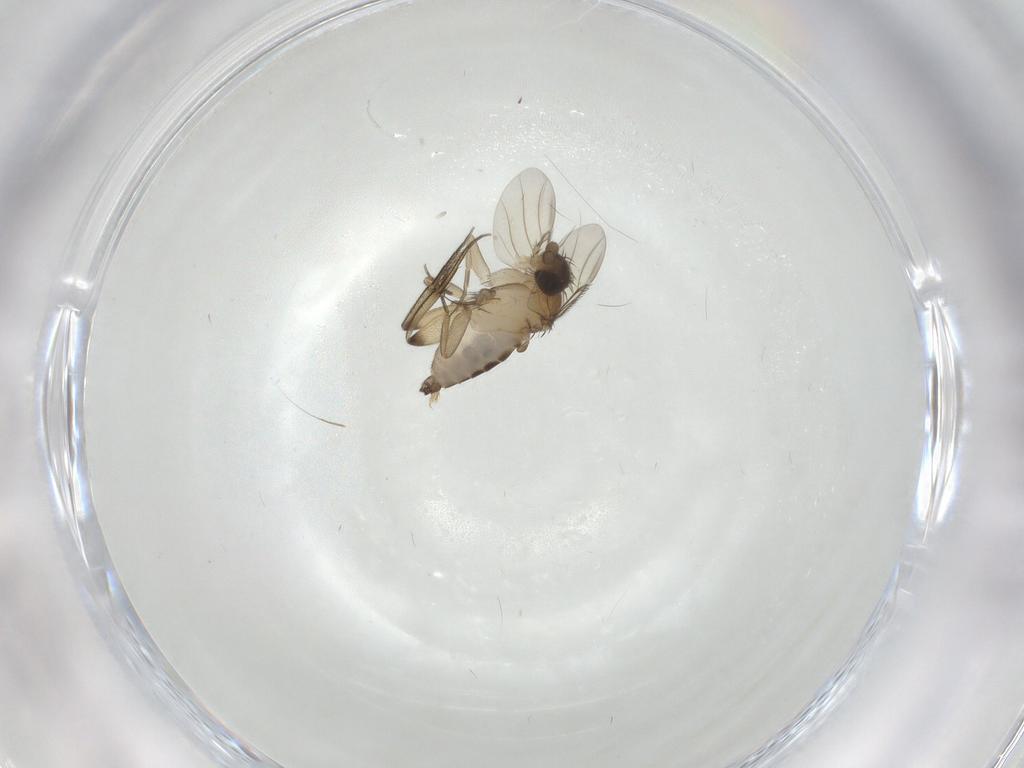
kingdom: Animalia
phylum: Arthropoda
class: Insecta
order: Diptera
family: Phoridae
